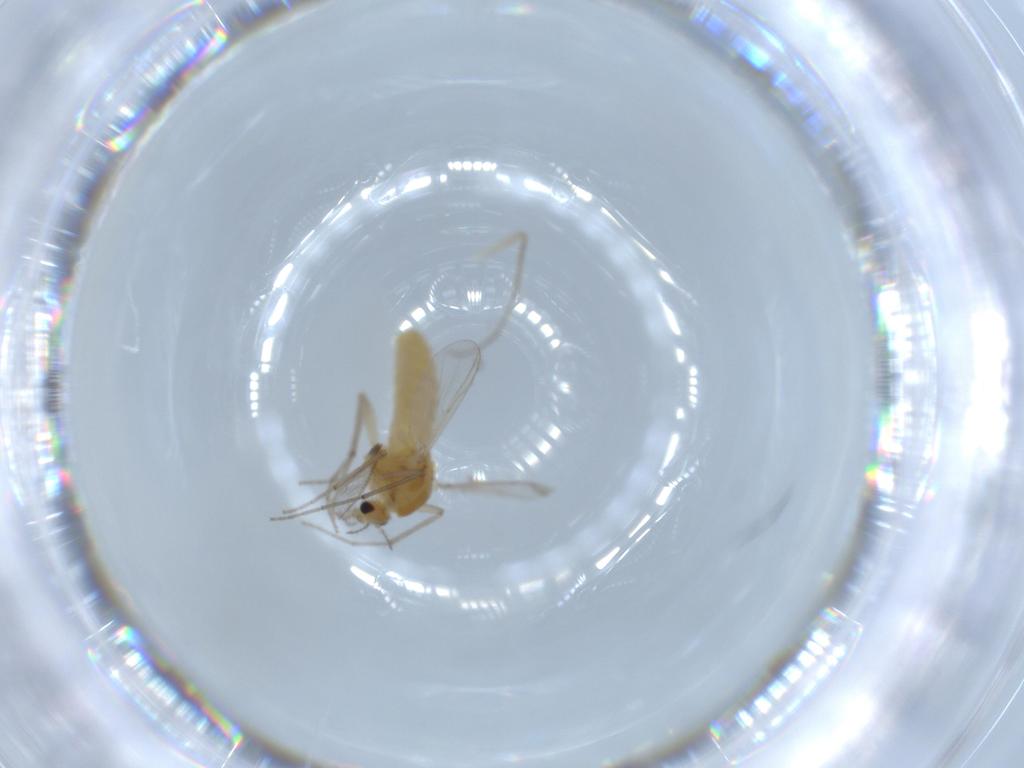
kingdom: Animalia
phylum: Arthropoda
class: Insecta
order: Diptera
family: Chironomidae
